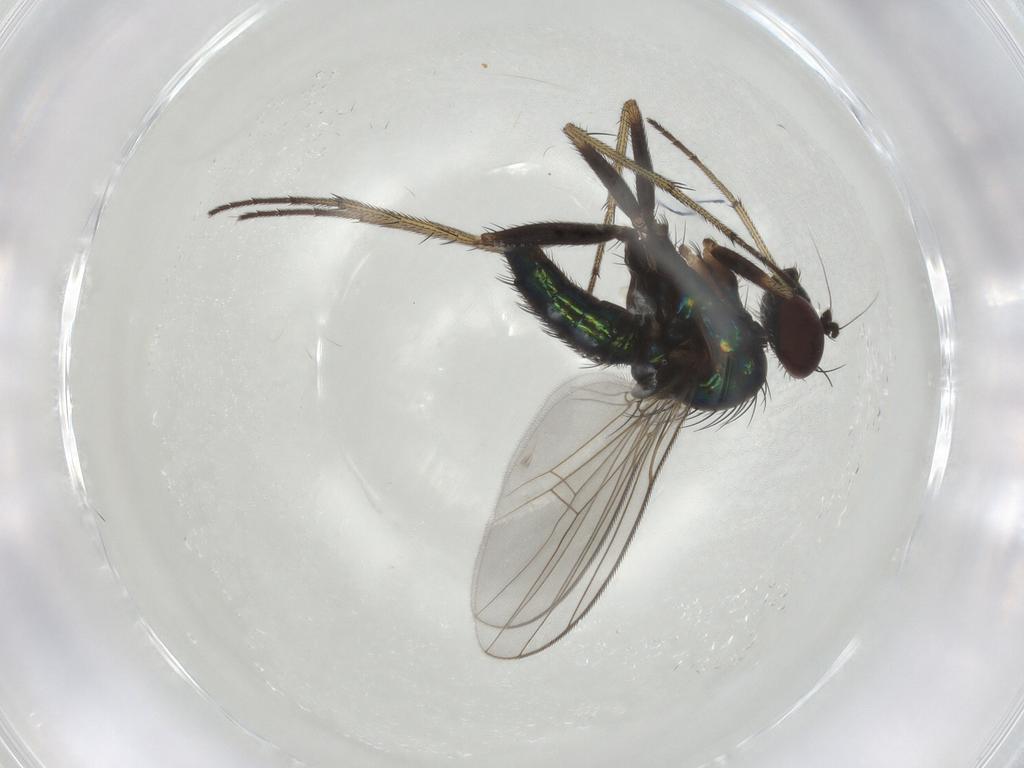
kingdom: Animalia
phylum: Arthropoda
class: Insecta
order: Diptera
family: Dolichopodidae
